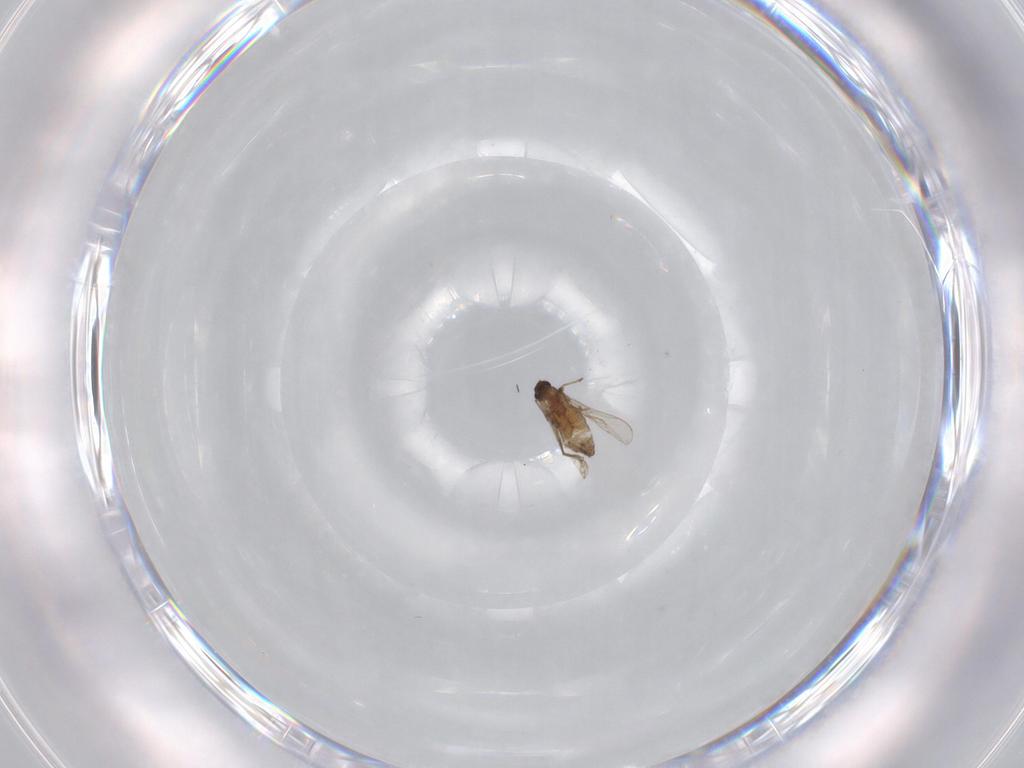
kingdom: Animalia
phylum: Arthropoda
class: Insecta
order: Diptera
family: Chironomidae
